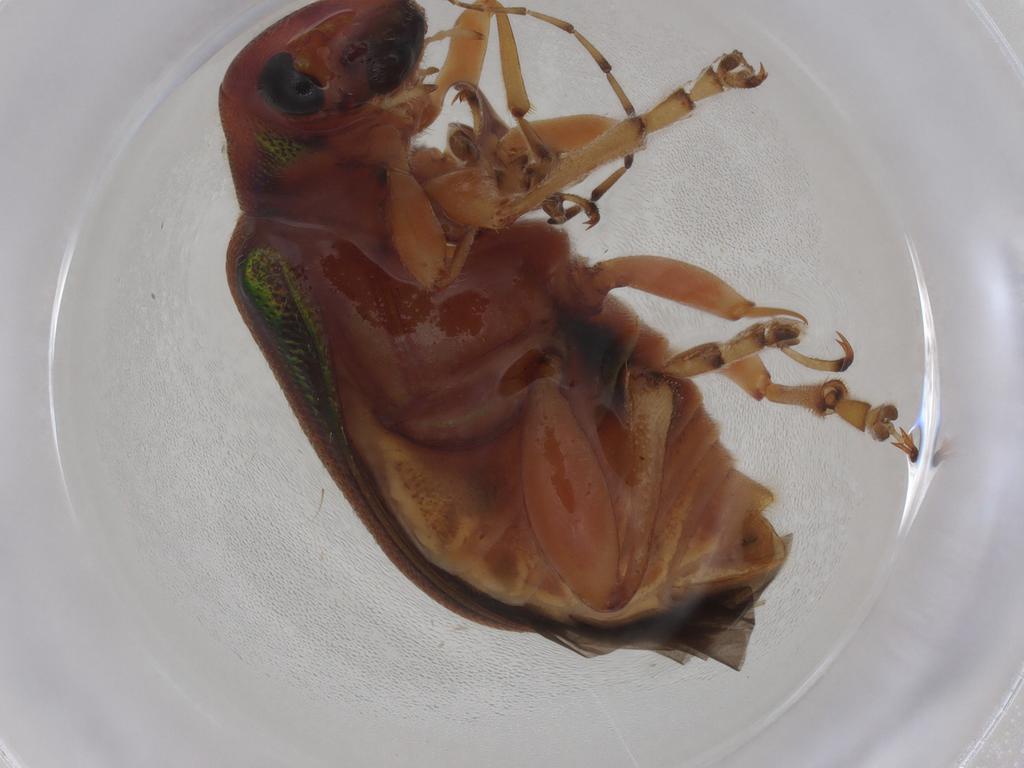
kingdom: Animalia
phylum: Arthropoda
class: Insecta
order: Coleoptera
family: Chrysomelidae
